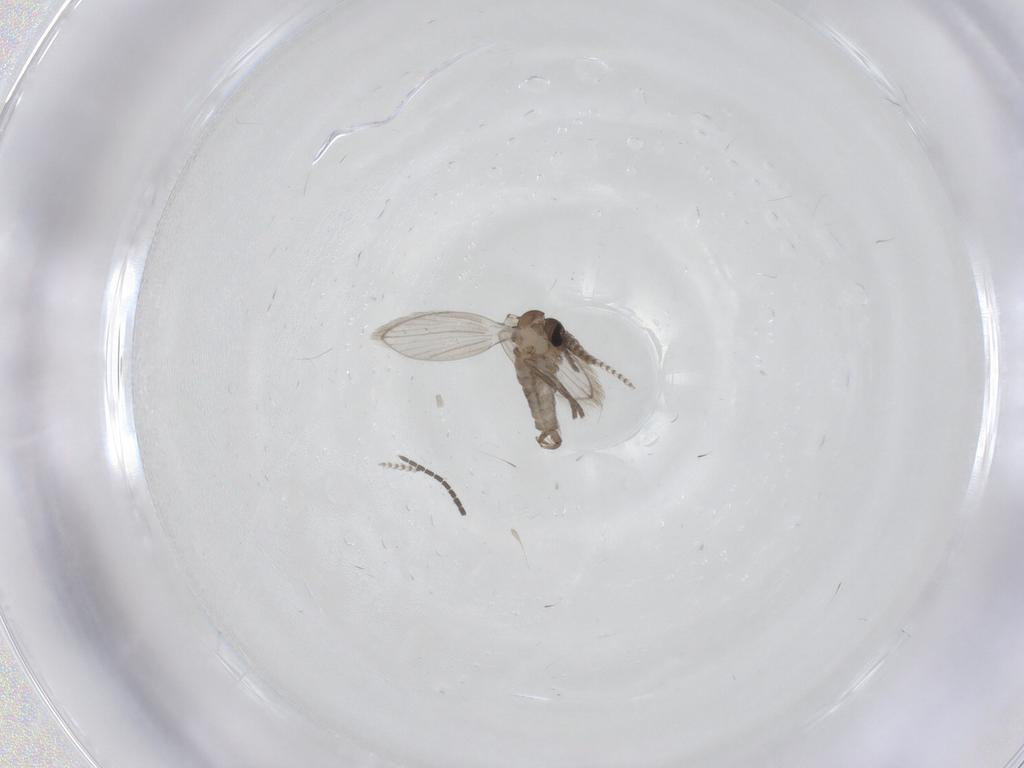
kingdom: Animalia
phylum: Arthropoda
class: Insecta
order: Diptera
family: Psychodidae
